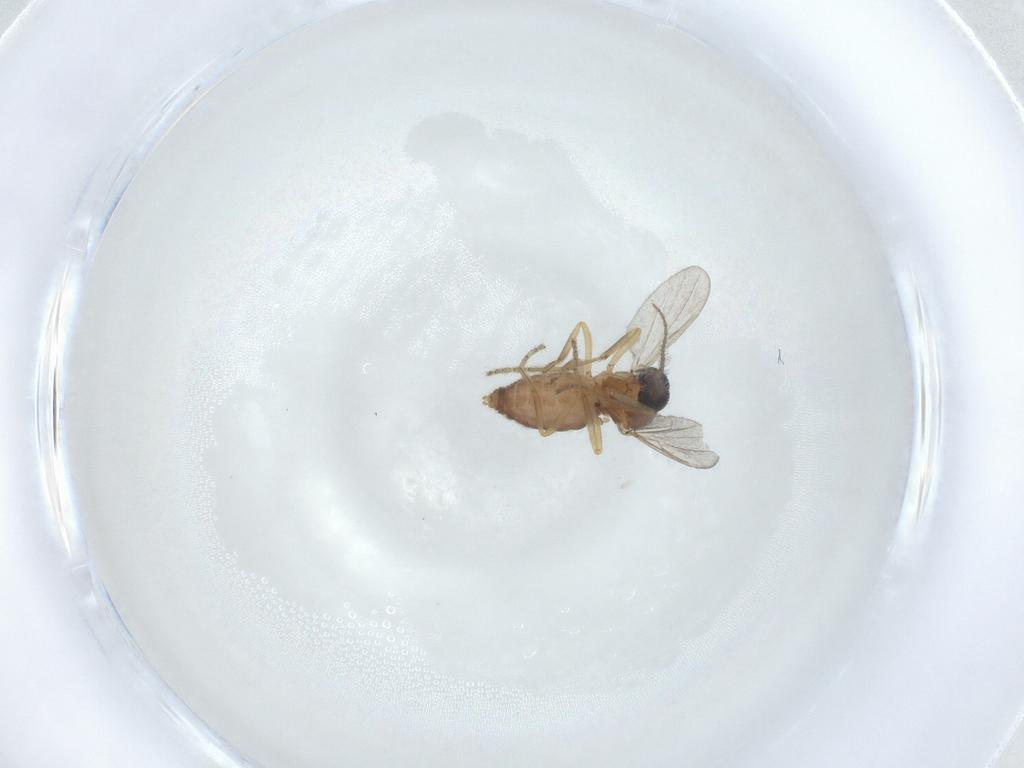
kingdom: Animalia
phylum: Arthropoda
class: Insecta
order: Diptera
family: Ceratopogonidae
